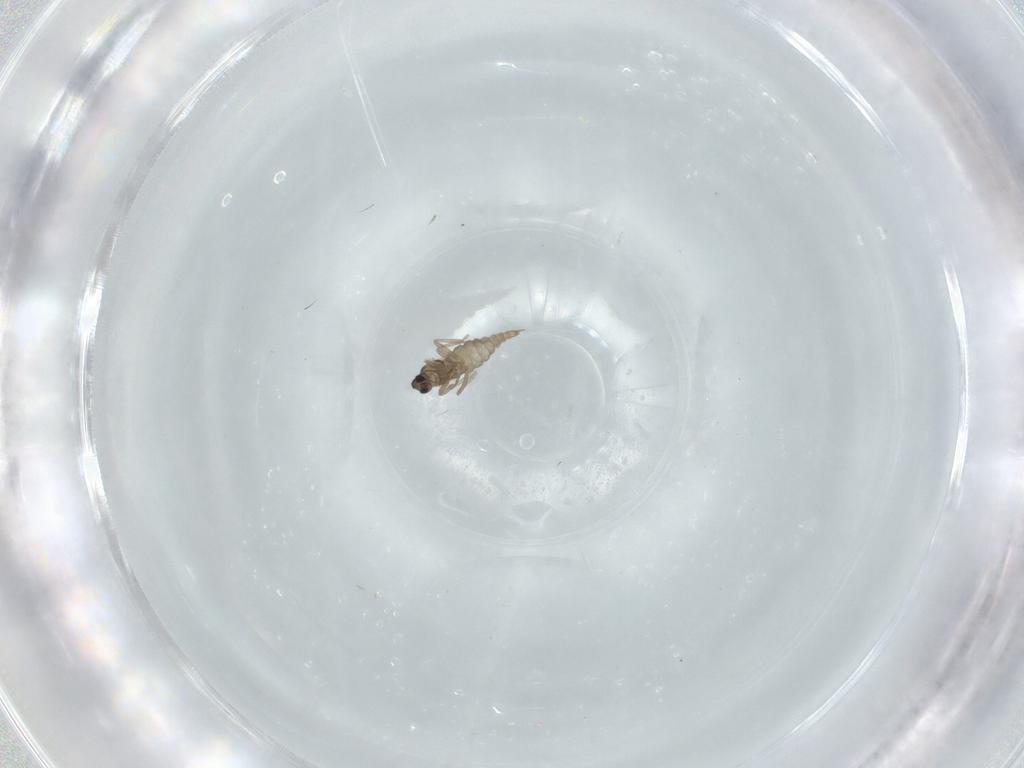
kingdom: Animalia
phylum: Arthropoda
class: Insecta
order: Diptera
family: Cecidomyiidae
